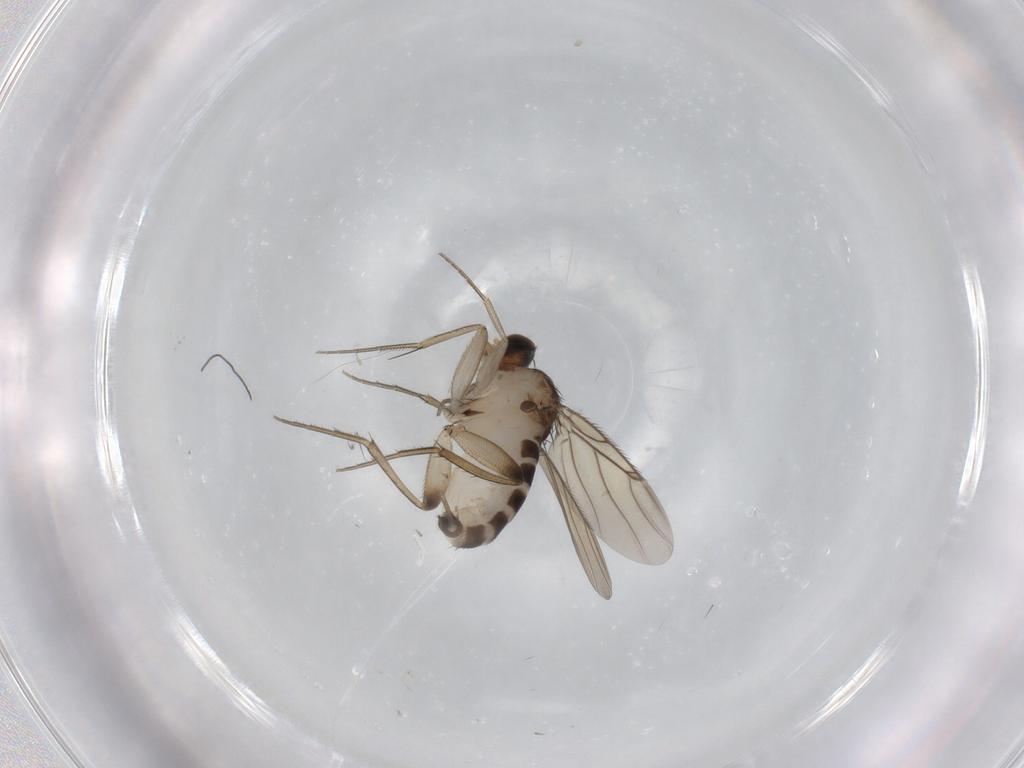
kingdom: Animalia
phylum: Arthropoda
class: Insecta
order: Diptera
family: Phoridae
